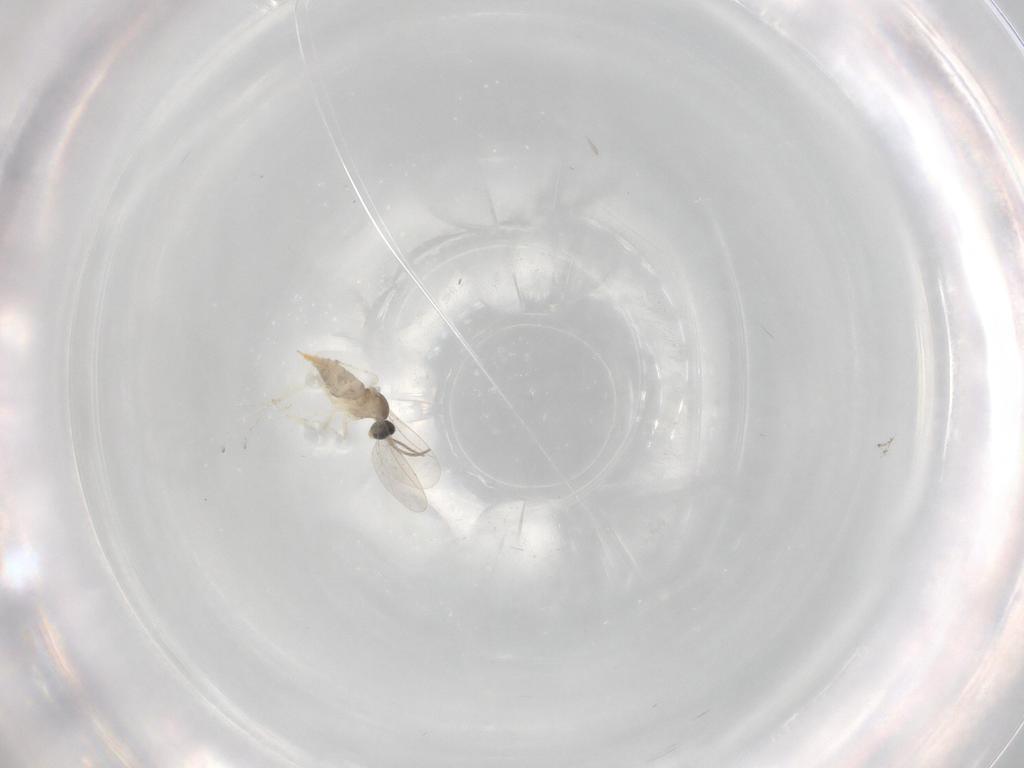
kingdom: Animalia
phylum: Arthropoda
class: Insecta
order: Diptera
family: Cecidomyiidae
